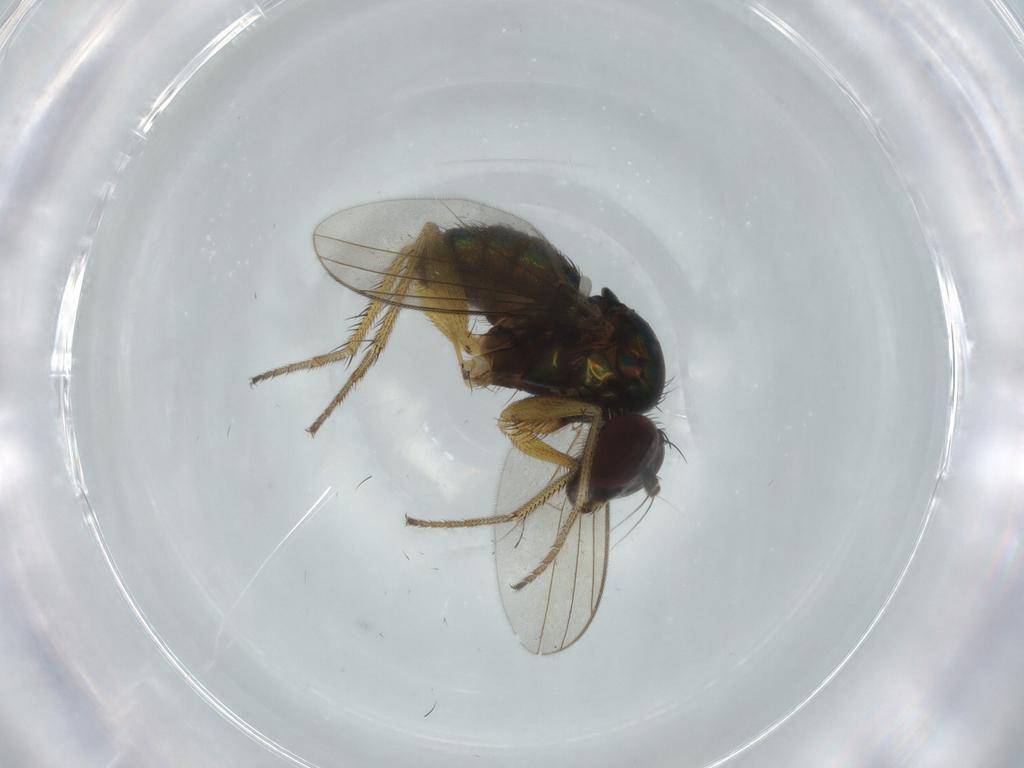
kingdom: Animalia
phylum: Arthropoda
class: Insecta
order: Diptera
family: Dolichopodidae
